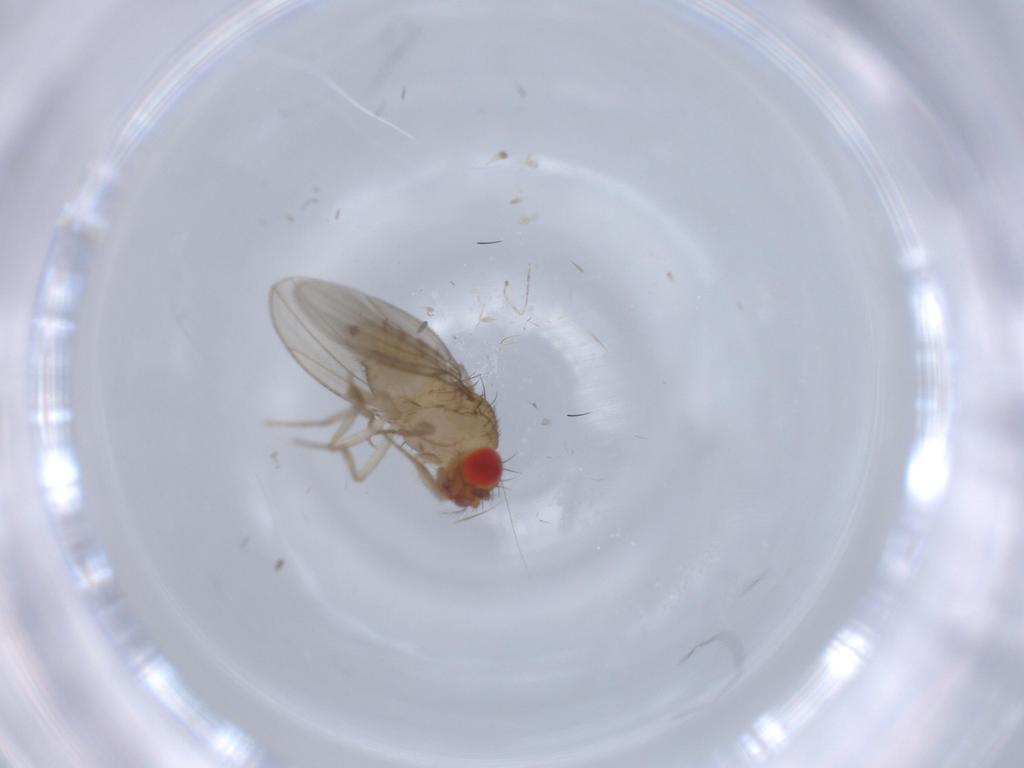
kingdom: Animalia
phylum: Arthropoda
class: Insecta
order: Diptera
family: Drosophilidae
